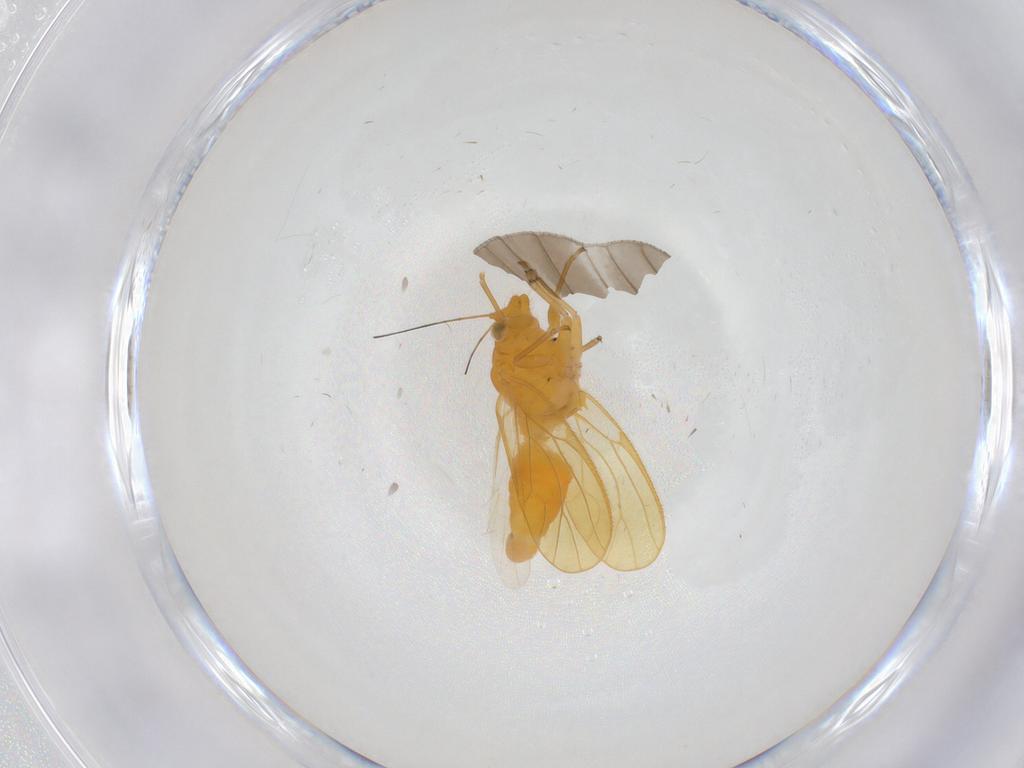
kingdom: Animalia
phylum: Arthropoda
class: Insecta
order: Hemiptera
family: Psyllidae
